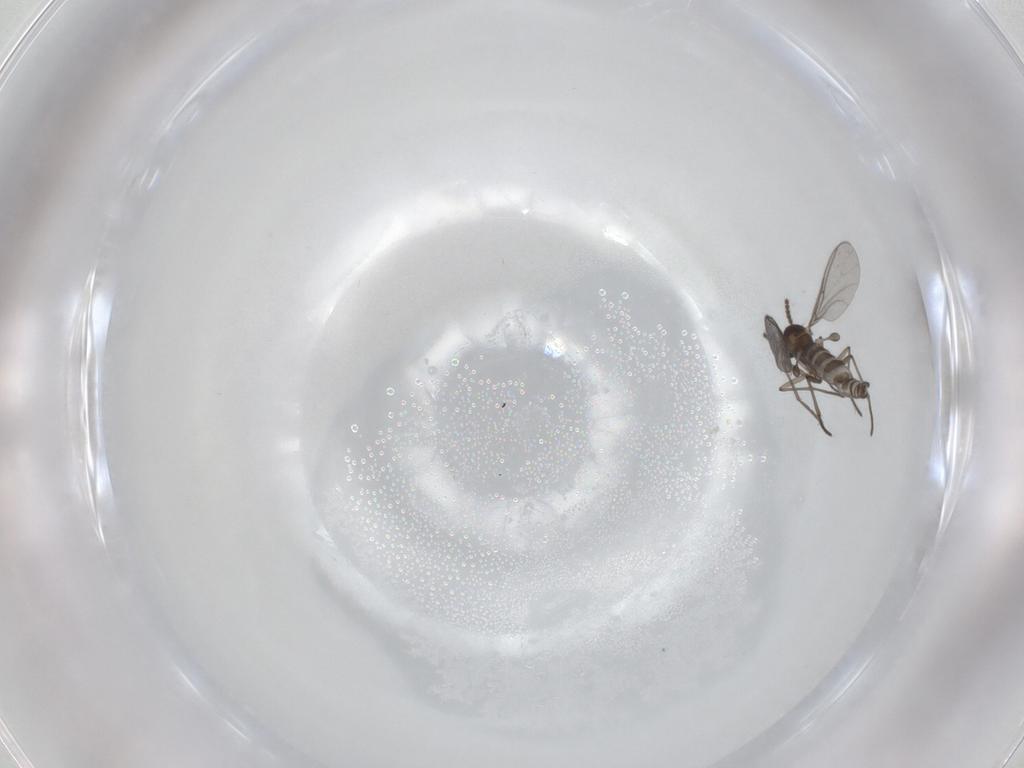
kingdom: Animalia
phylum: Arthropoda
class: Insecta
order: Diptera
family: Sciaridae
